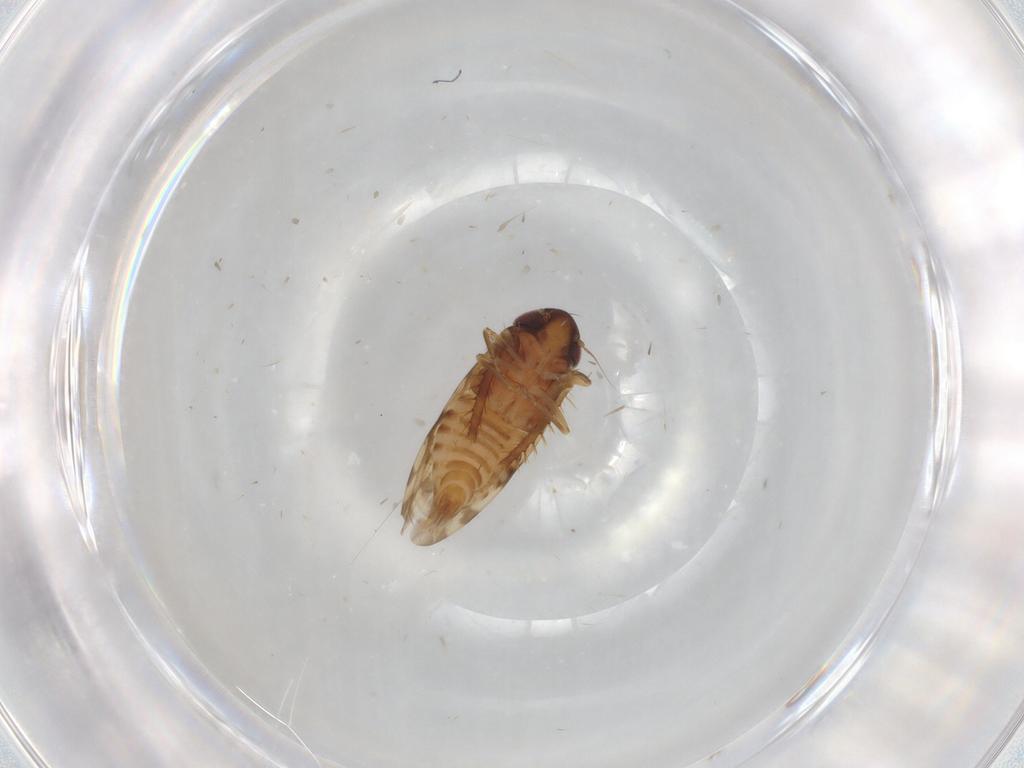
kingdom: Animalia
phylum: Arthropoda
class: Insecta
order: Hemiptera
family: Cicadellidae
